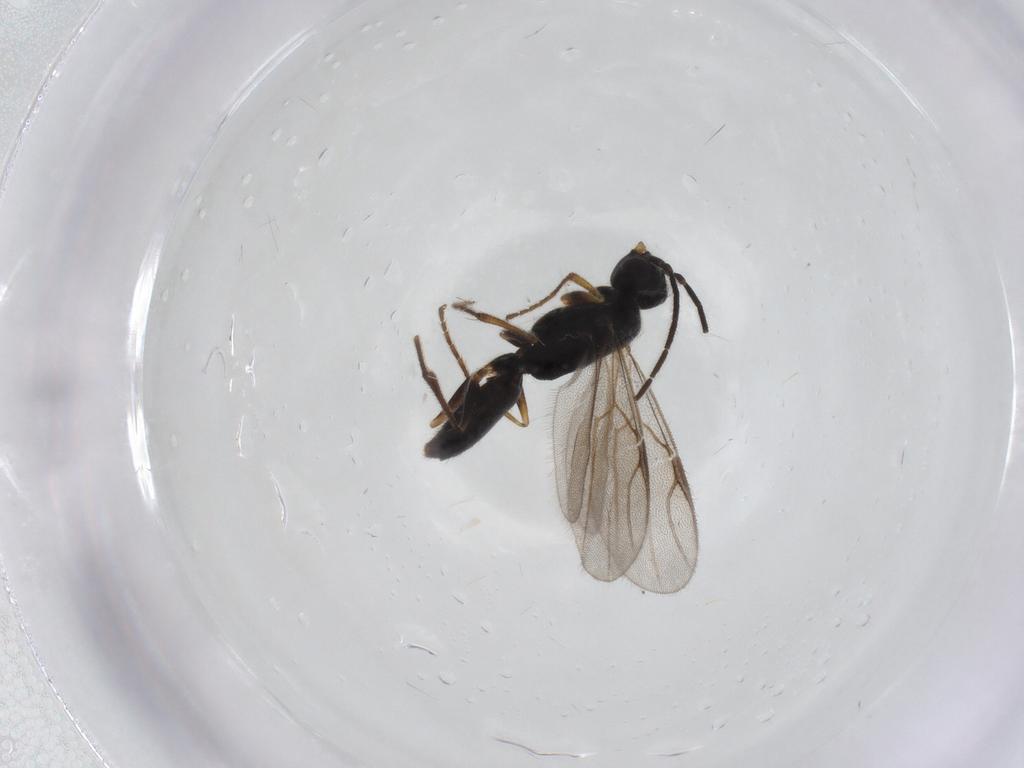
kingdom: Animalia
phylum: Arthropoda
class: Insecta
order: Hymenoptera
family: Dryinidae
